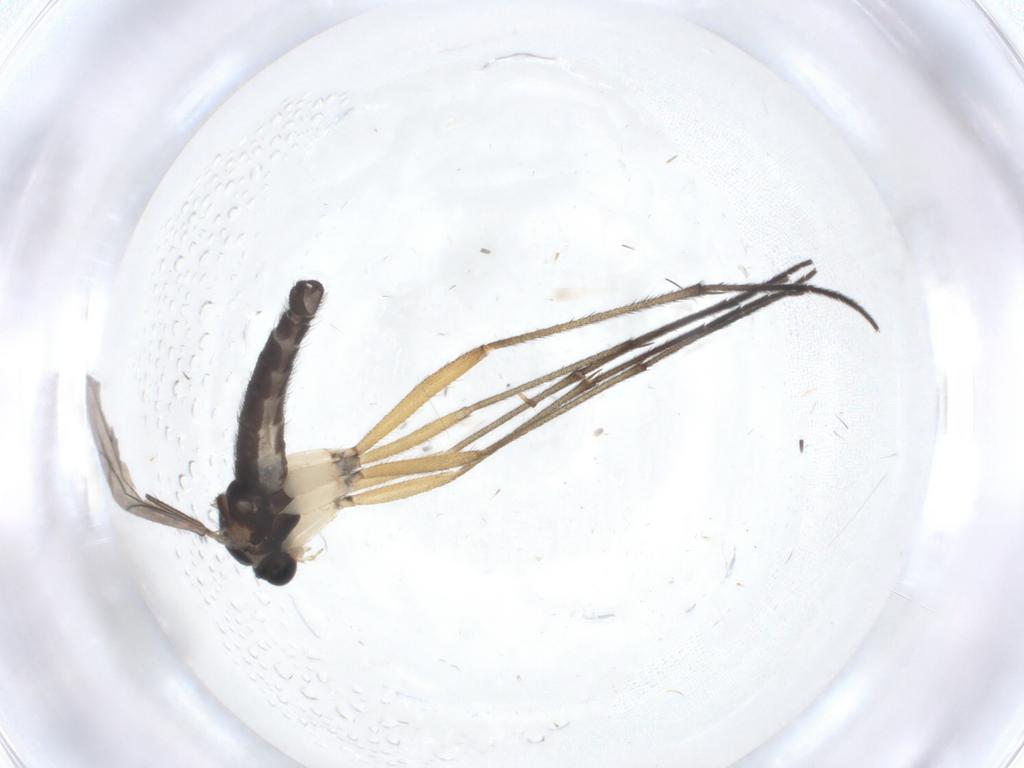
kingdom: Animalia
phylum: Arthropoda
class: Insecta
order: Diptera
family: Sciaridae
